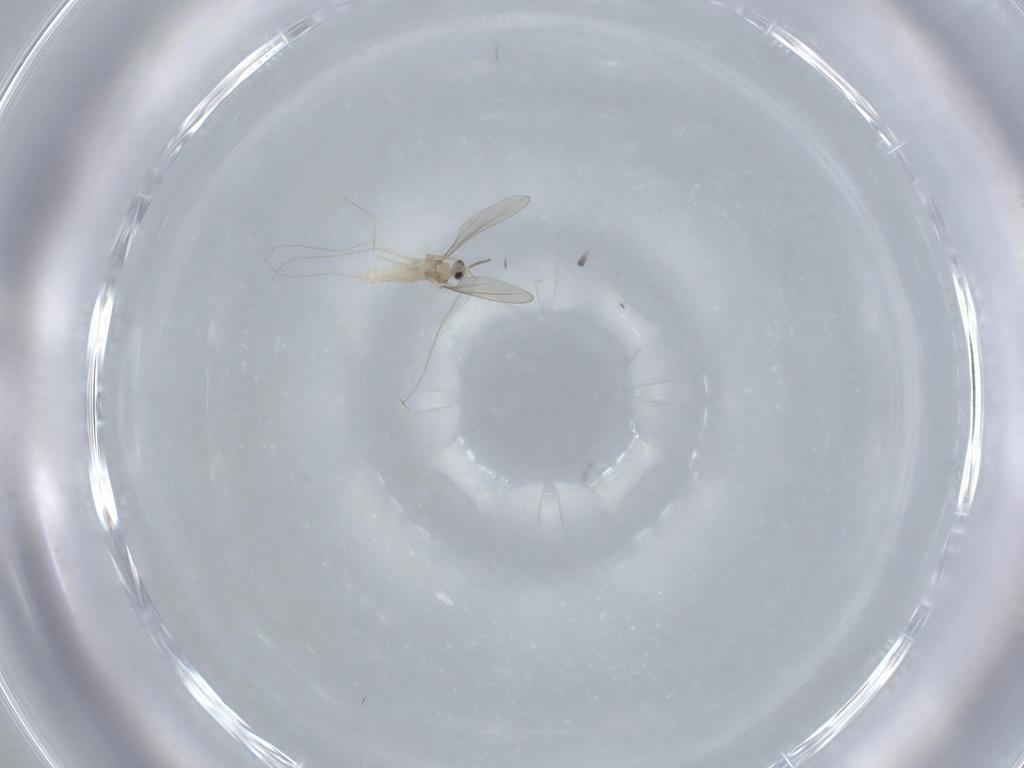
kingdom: Animalia
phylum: Arthropoda
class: Insecta
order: Diptera
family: Cecidomyiidae
